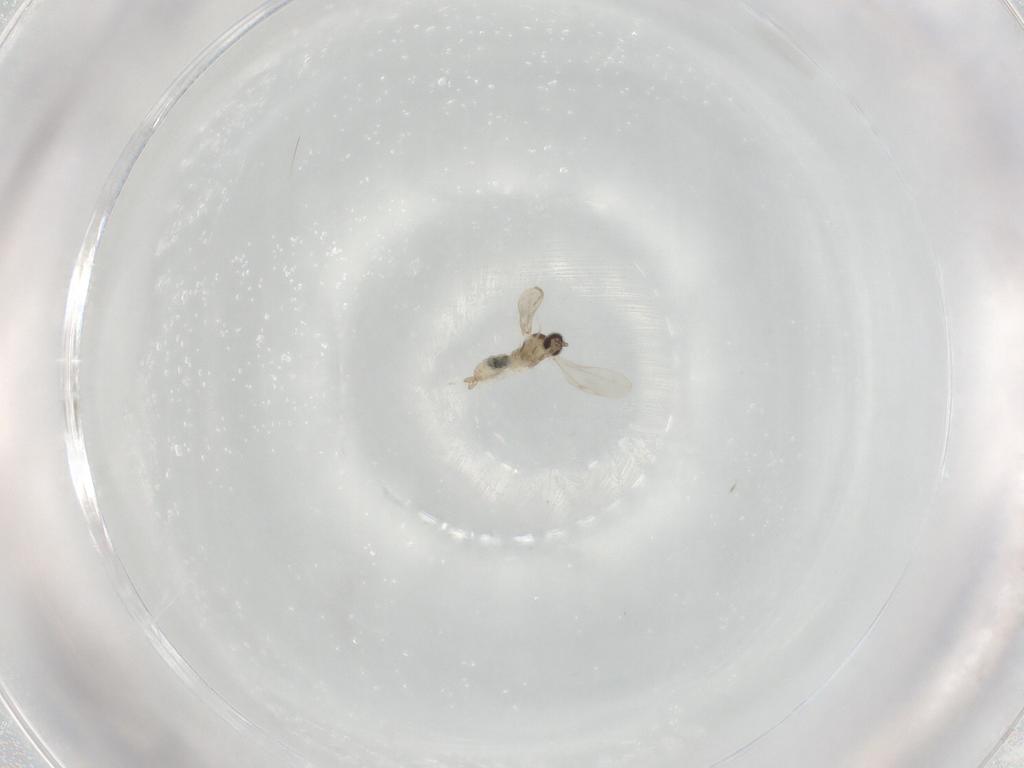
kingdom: Animalia
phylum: Arthropoda
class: Insecta
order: Diptera
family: Cecidomyiidae
